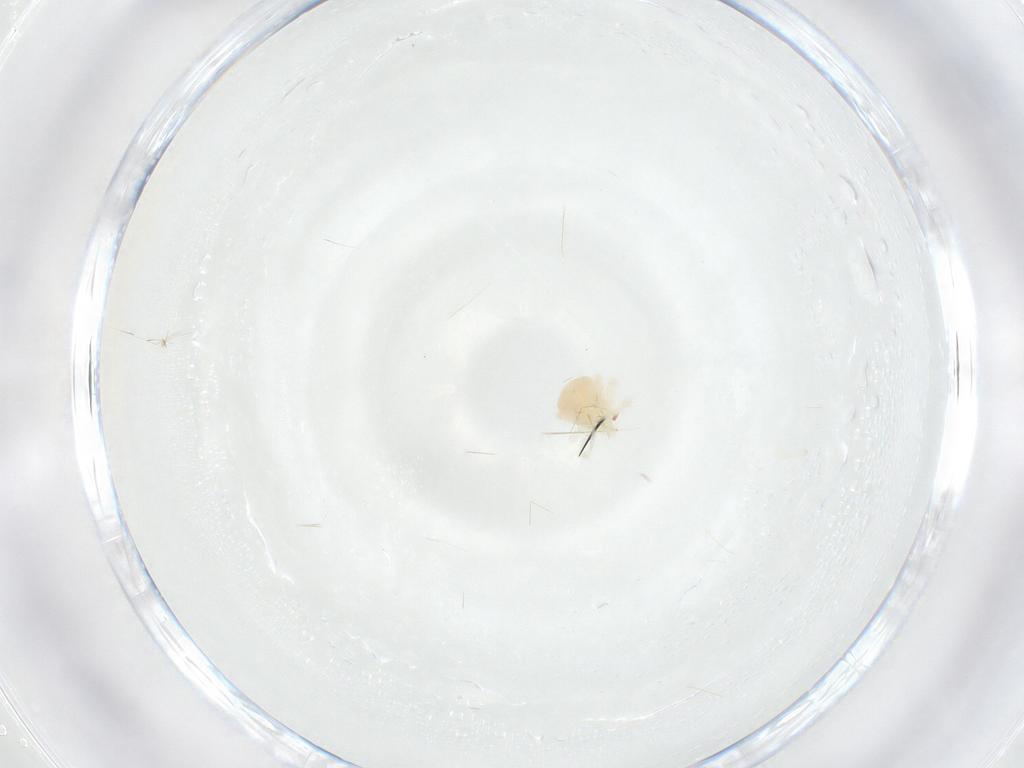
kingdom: Animalia
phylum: Arthropoda
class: Arachnida
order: Trombidiformes
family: Anystidae
